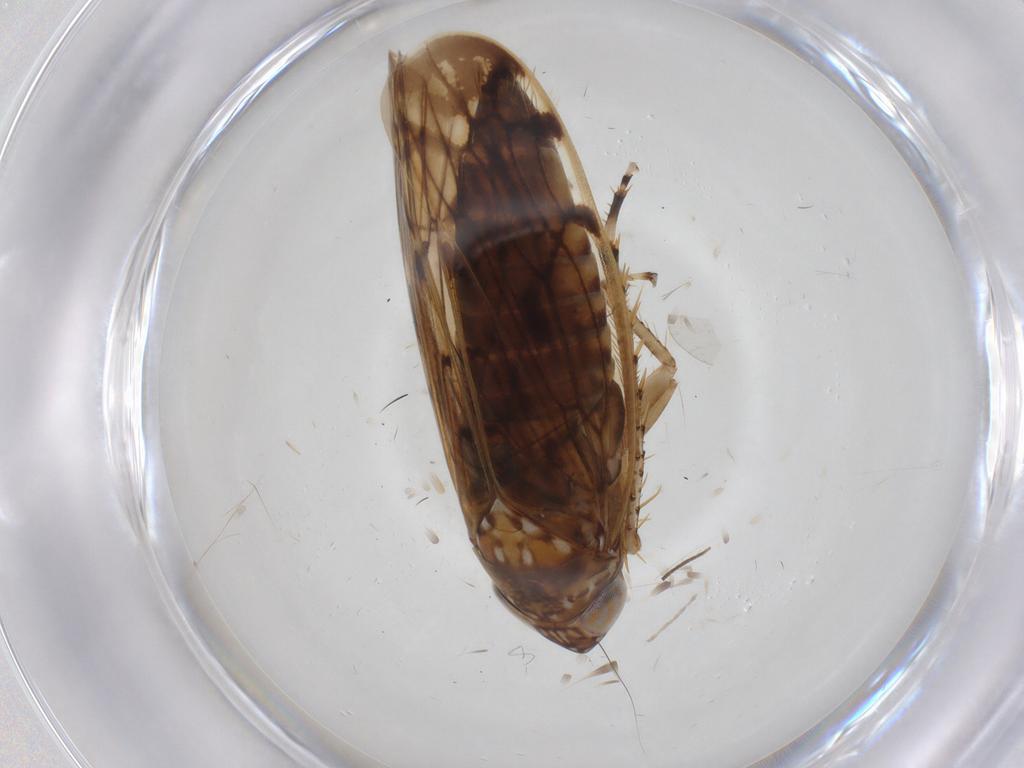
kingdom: Animalia
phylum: Arthropoda
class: Insecta
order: Hemiptera
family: Cicadellidae
